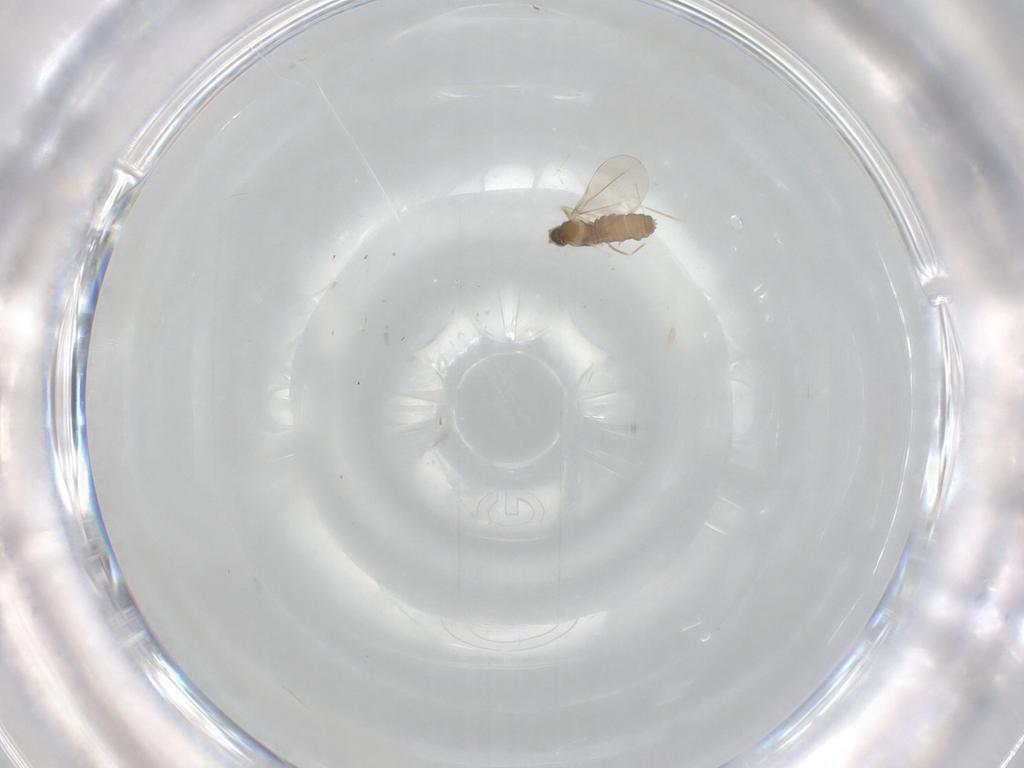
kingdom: Animalia
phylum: Arthropoda
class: Insecta
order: Diptera
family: Cecidomyiidae
